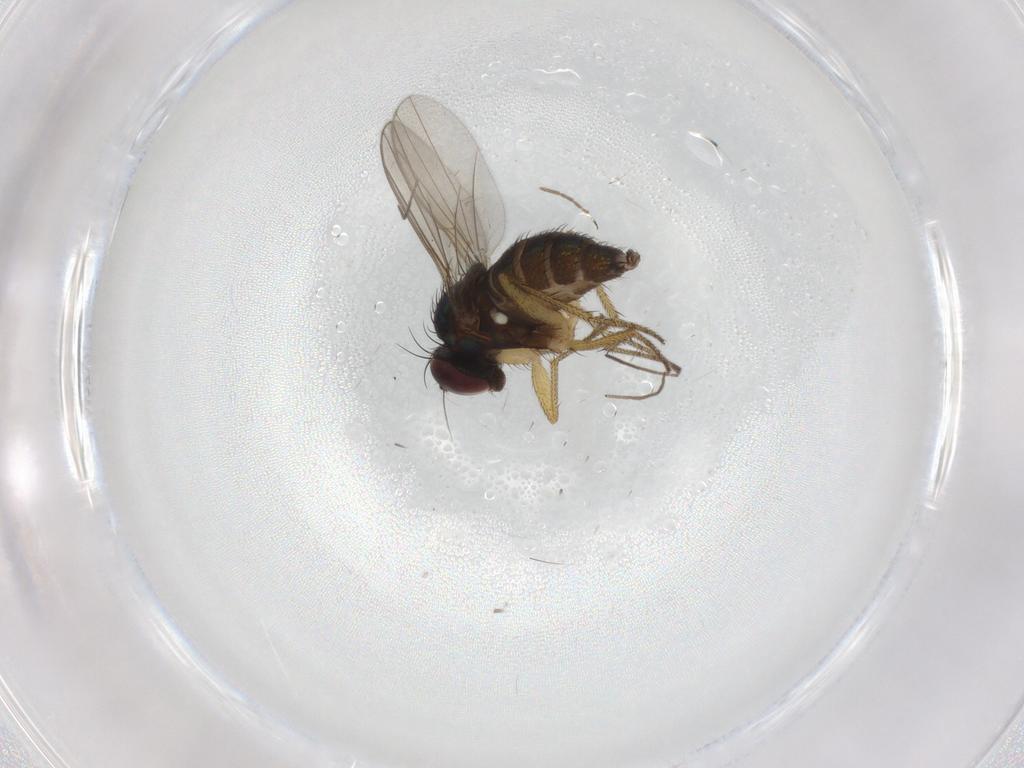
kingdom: Animalia
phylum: Arthropoda
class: Insecta
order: Diptera
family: Chironomidae
